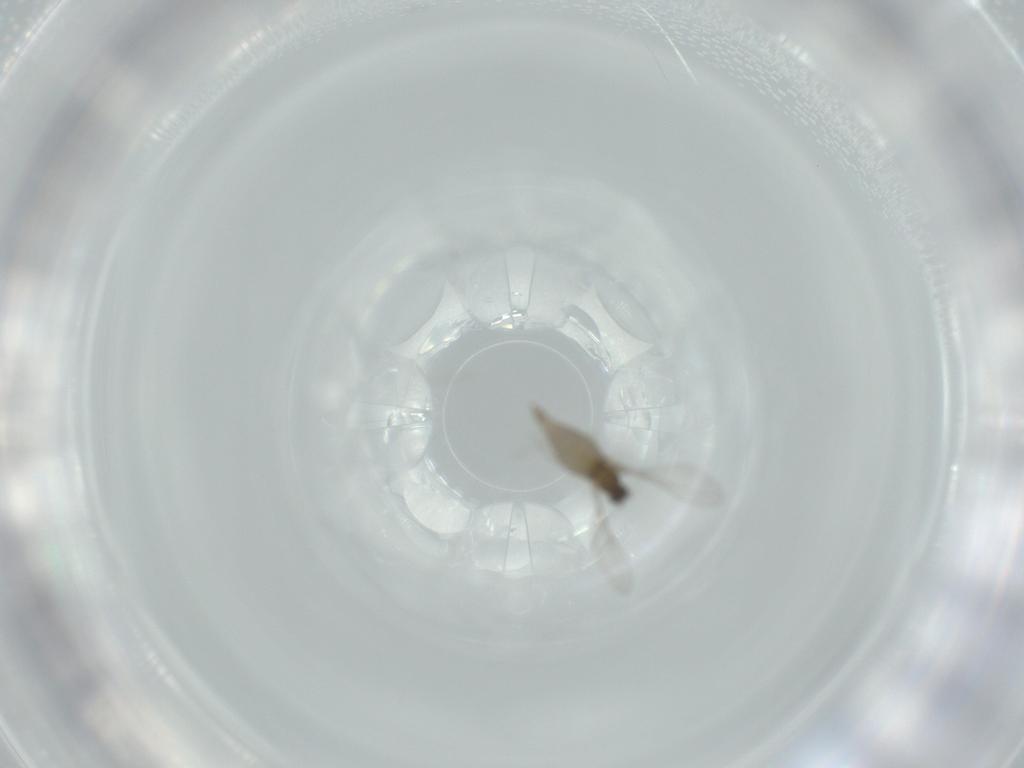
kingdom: Animalia
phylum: Arthropoda
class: Insecta
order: Diptera
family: Cecidomyiidae
